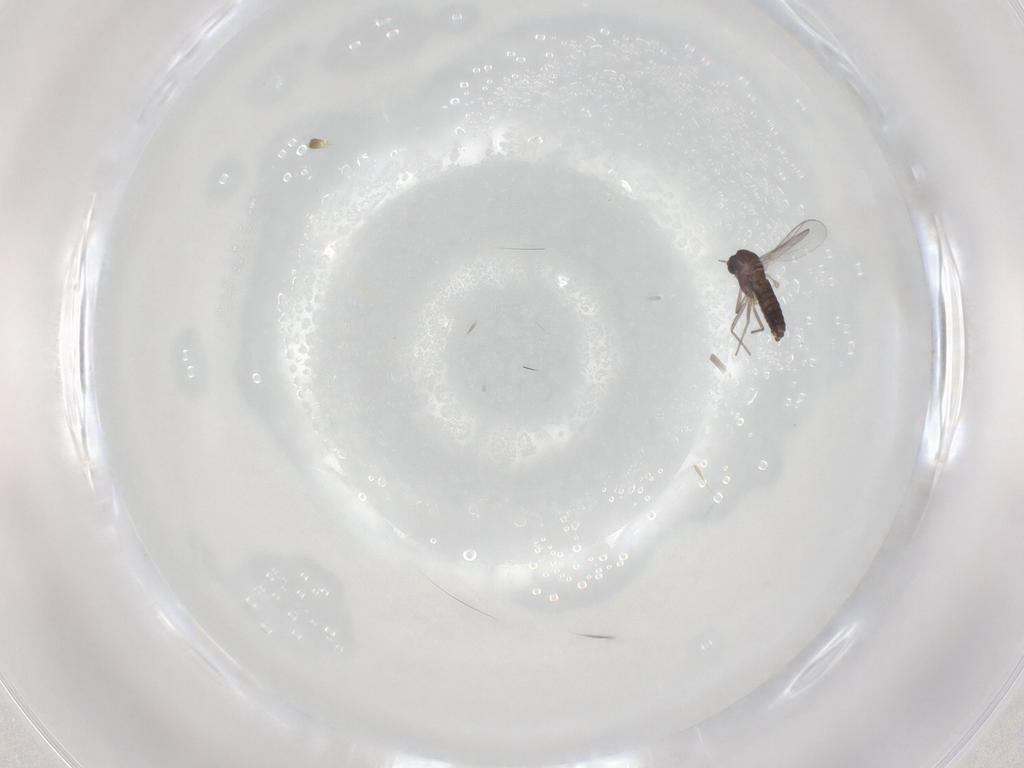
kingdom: Animalia
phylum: Arthropoda
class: Insecta
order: Diptera
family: Chironomidae
